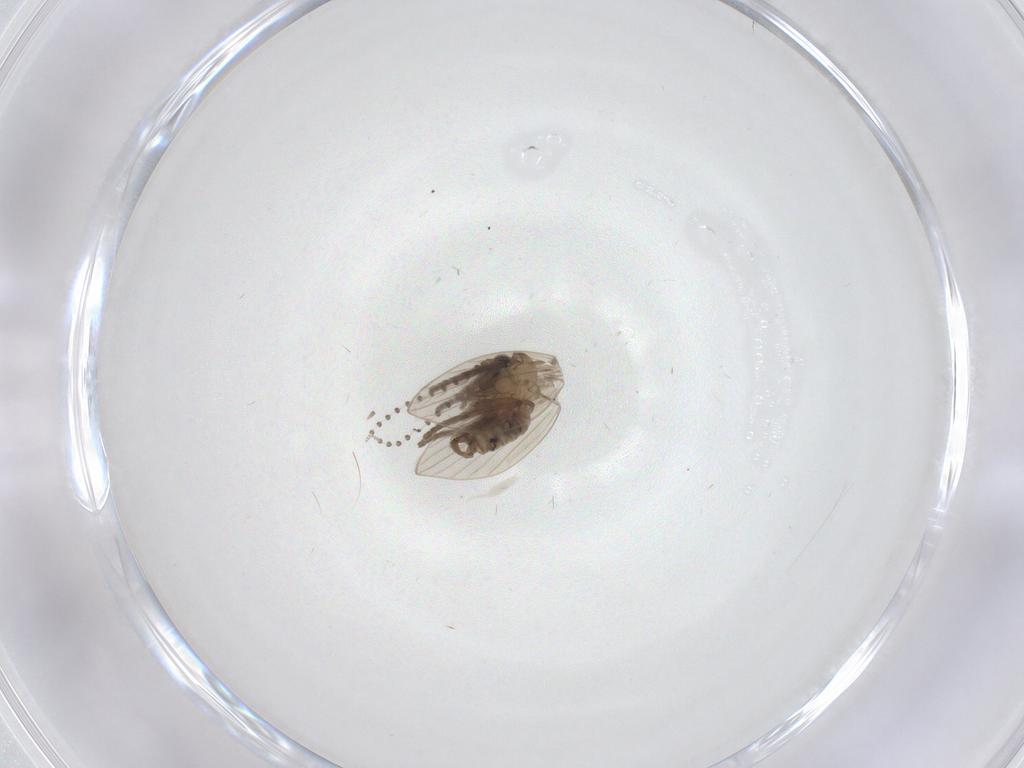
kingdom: Animalia
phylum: Arthropoda
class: Insecta
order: Diptera
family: Psychodidae
